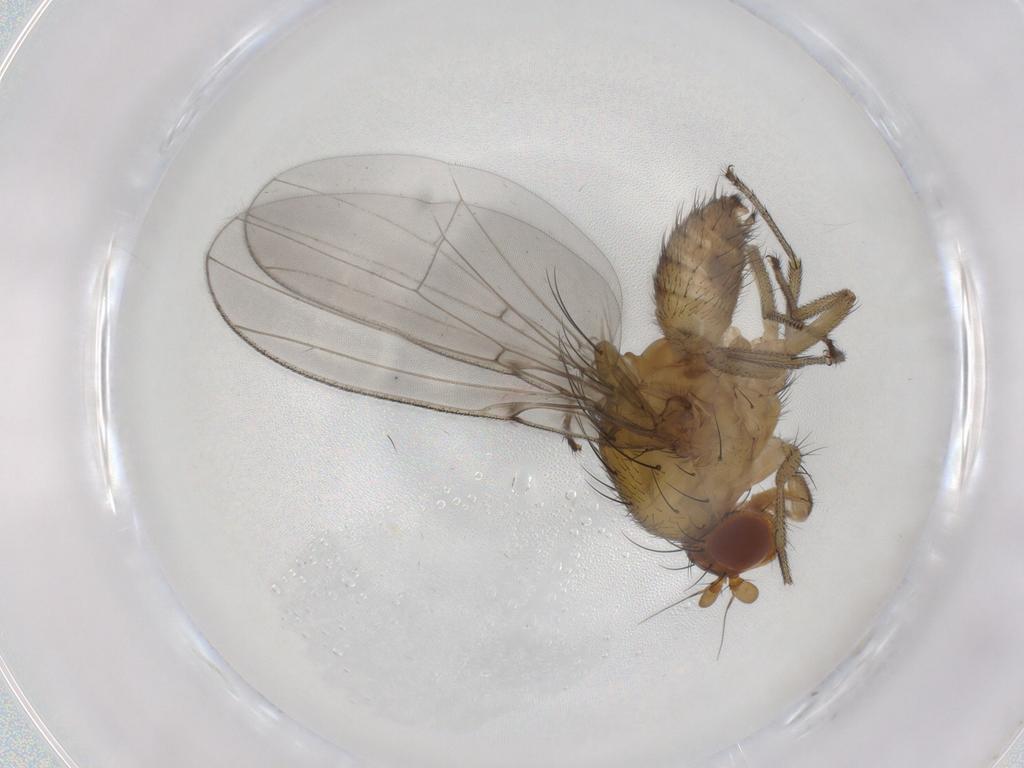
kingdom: Animalia
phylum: Arthropoda
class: Insecta
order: Diptera
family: Lauxaniidae
